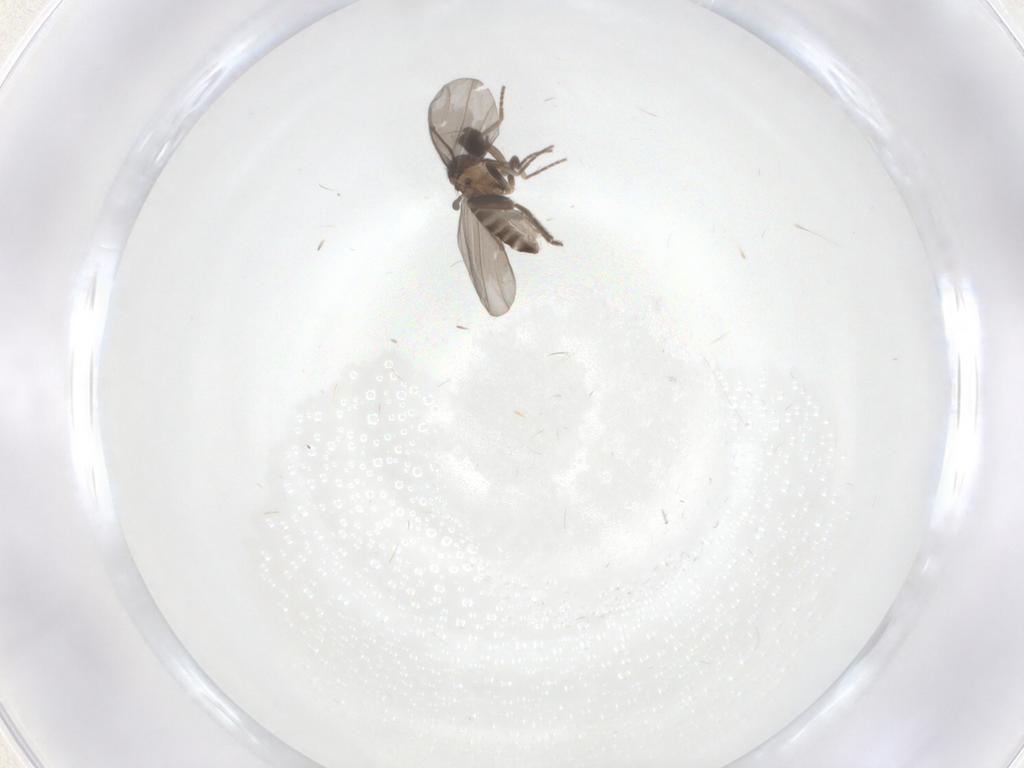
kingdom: Animalia
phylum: Arthropoda
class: Insecta
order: Diptera
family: Phoridae
